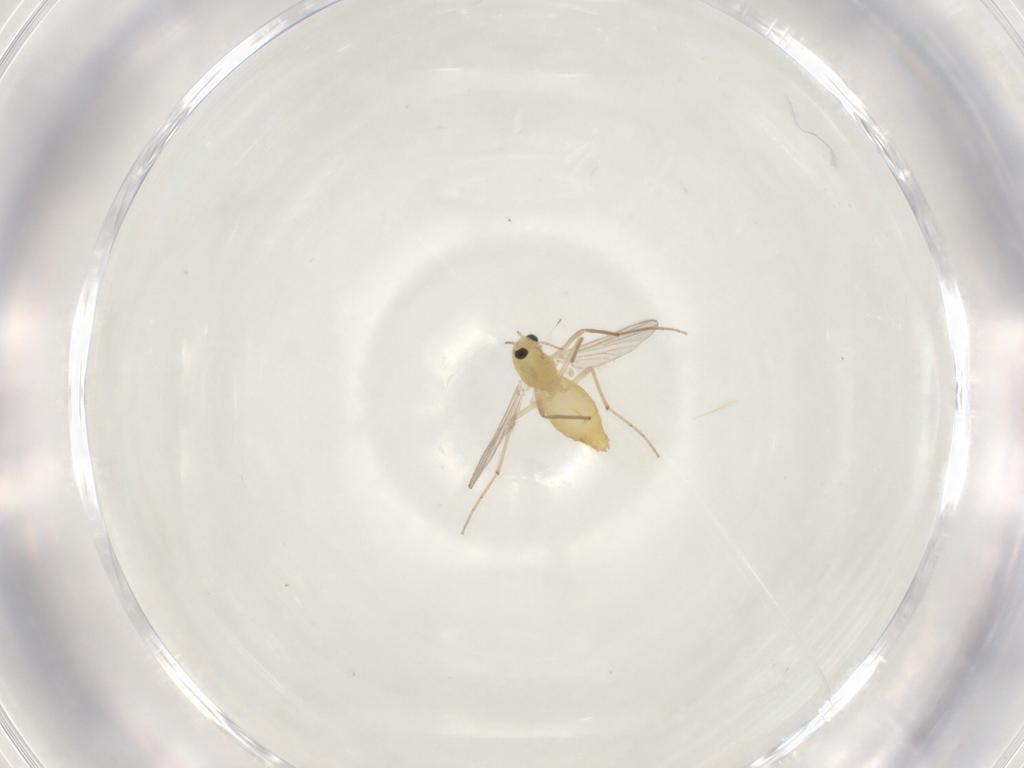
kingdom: Animalia
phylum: Arthropoda
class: Insecta
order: Diptera
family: Chironomidae
